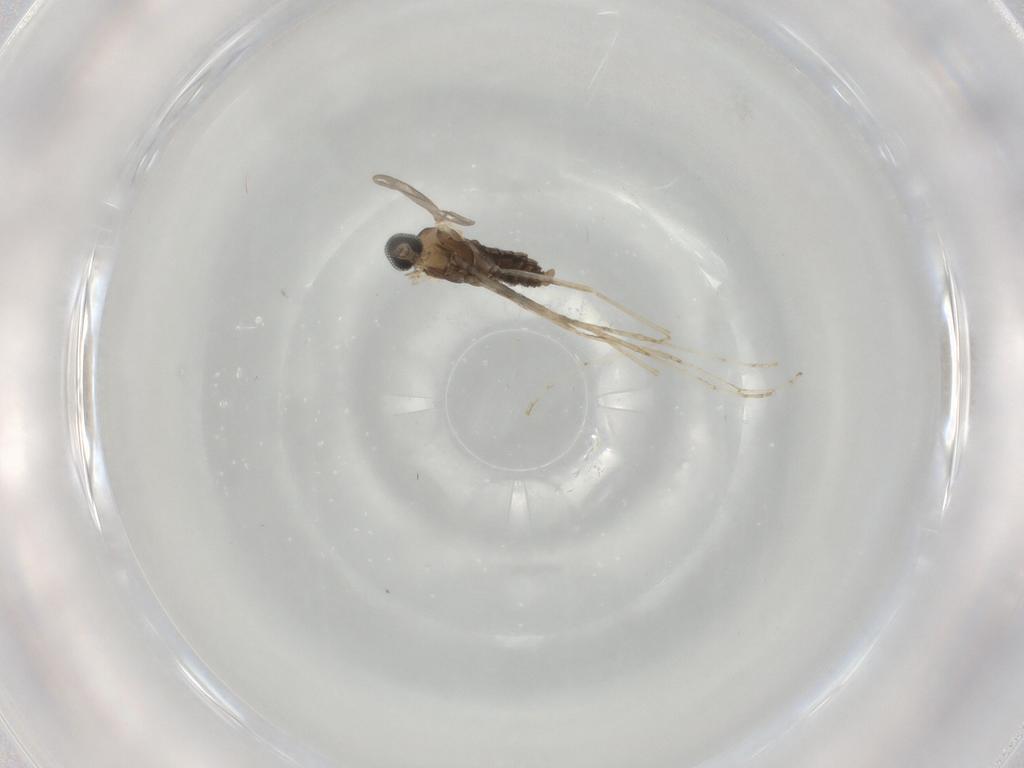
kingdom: Animalia
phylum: Arthropoda
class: Insecta
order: Diptera
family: Cecidomyiidae
